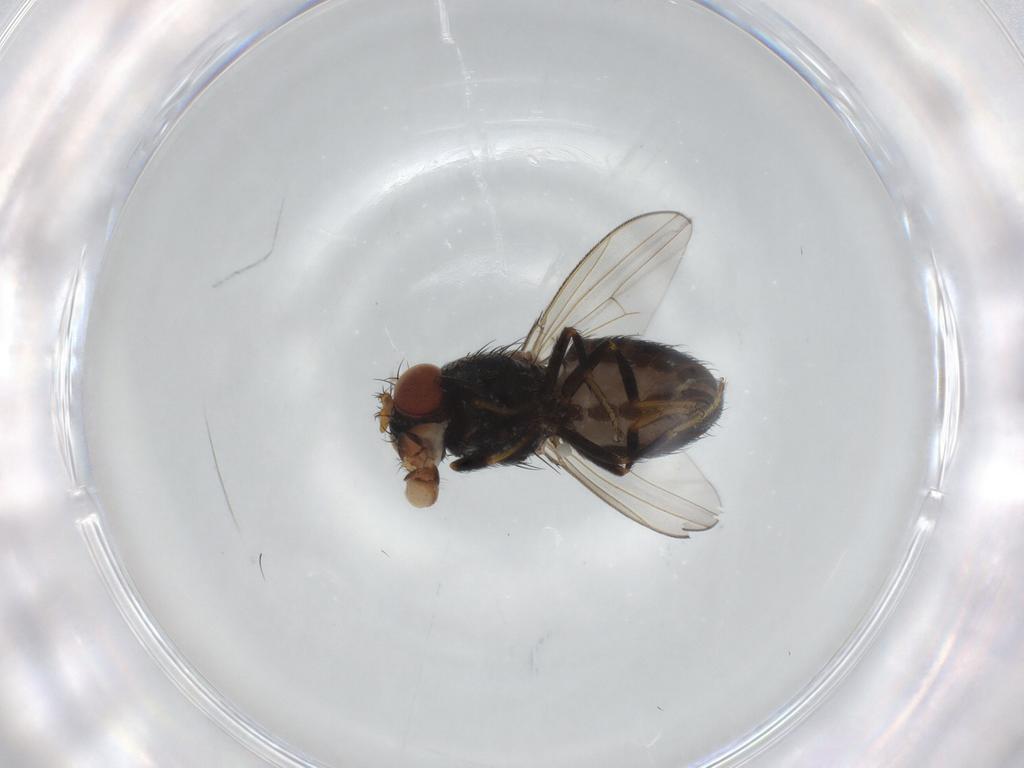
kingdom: Animalia
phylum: Arthropoda
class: Insecta
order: Diptera
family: Ephydridae
